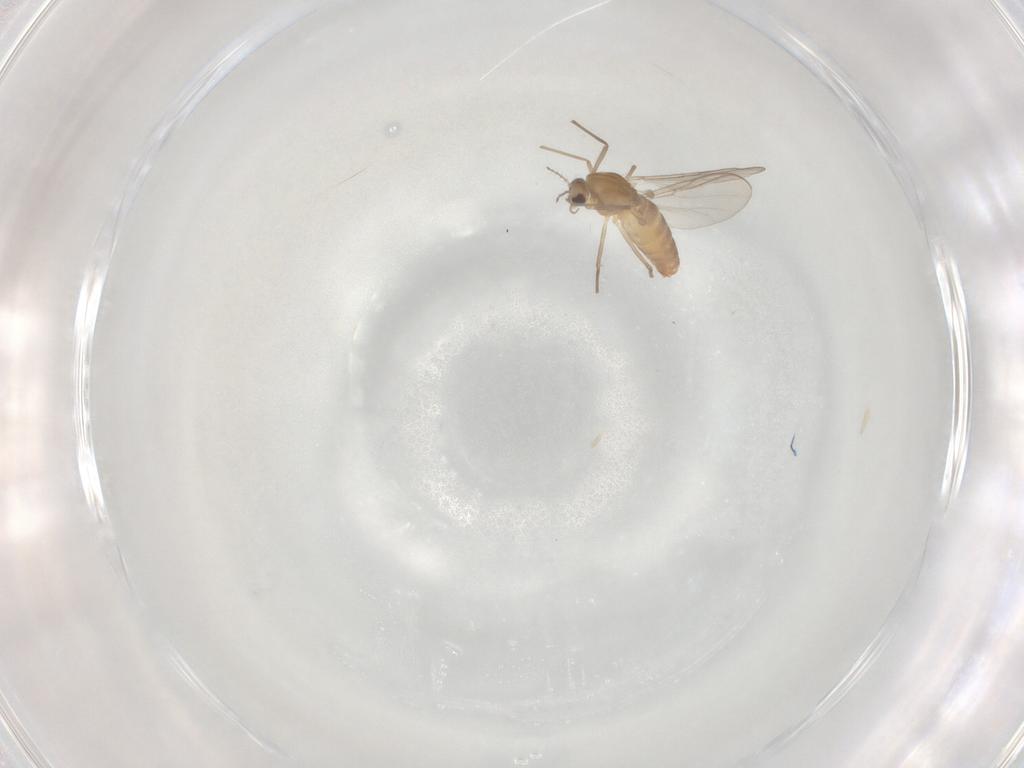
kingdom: Animalia
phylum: Arthropoda
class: Insecta
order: Diptera
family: Chironomidae
